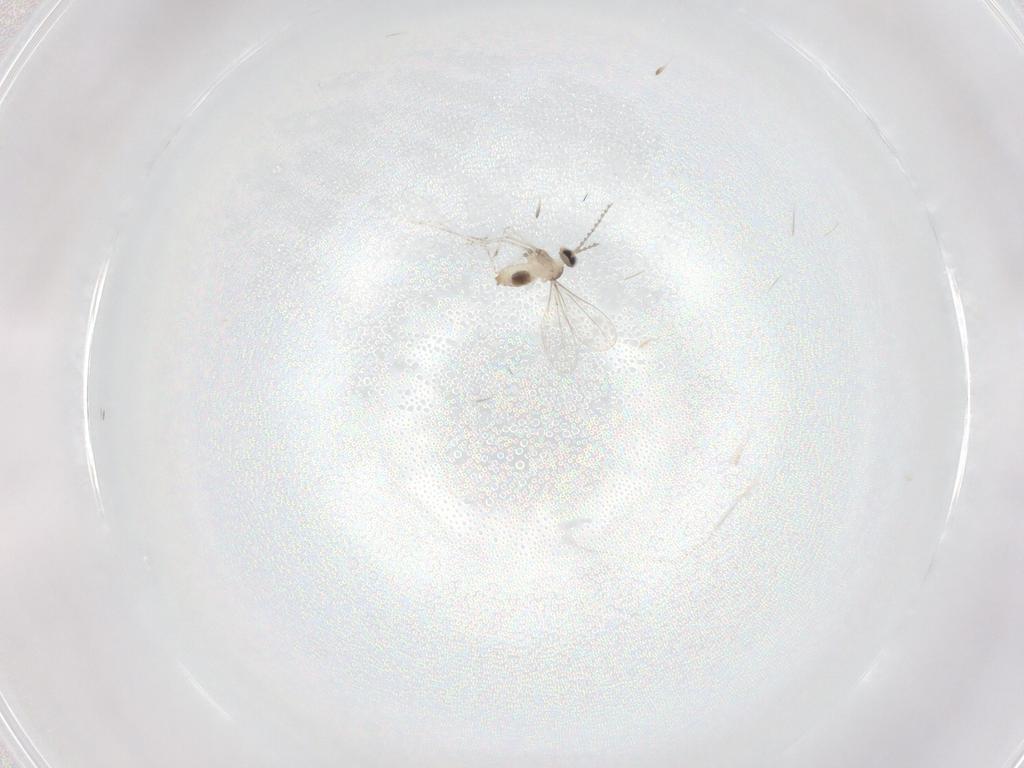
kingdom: Animalia
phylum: Arthropoda
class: Insecta
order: Diptera
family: Cecidomyiidae
